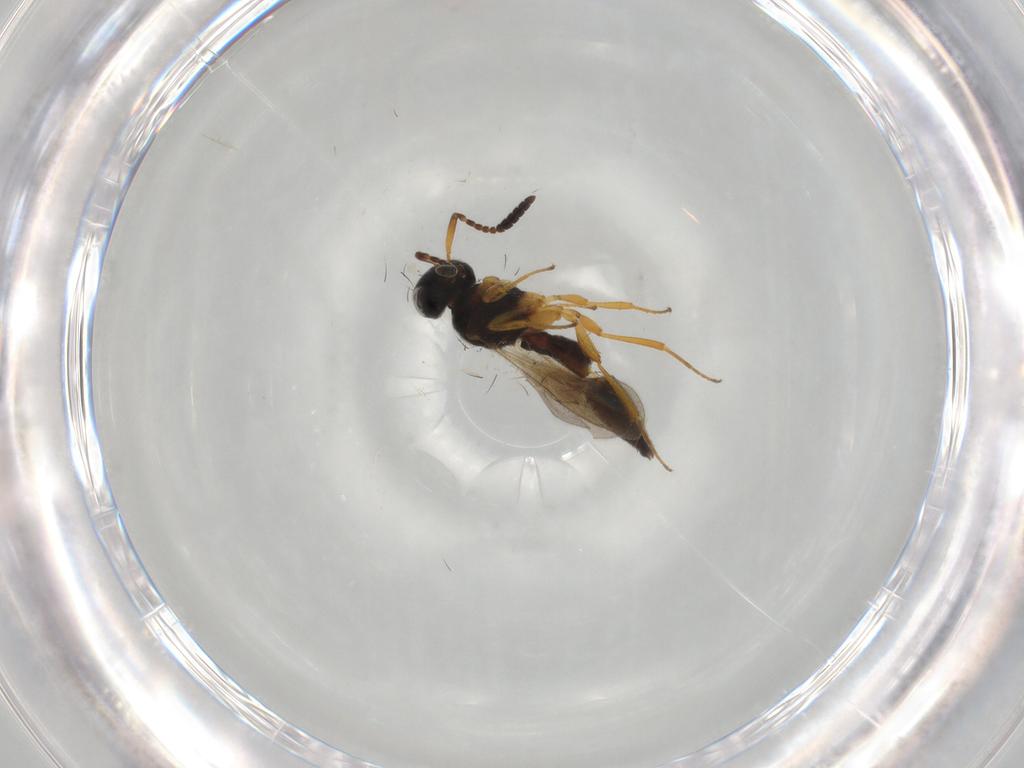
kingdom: Animalia
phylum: Arthropoda
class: Insecta
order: Hymenoptera
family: Scelionidae
